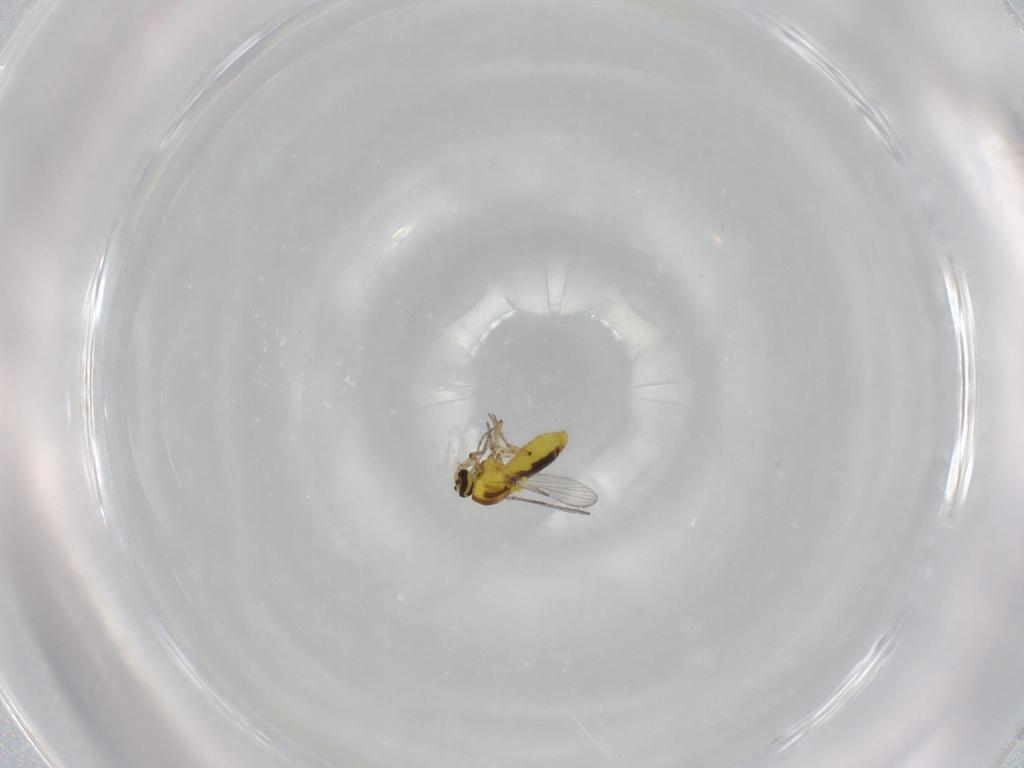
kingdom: Animalia
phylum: Arthropoda
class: Insecta
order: Diptera
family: Ceratopogonidae
